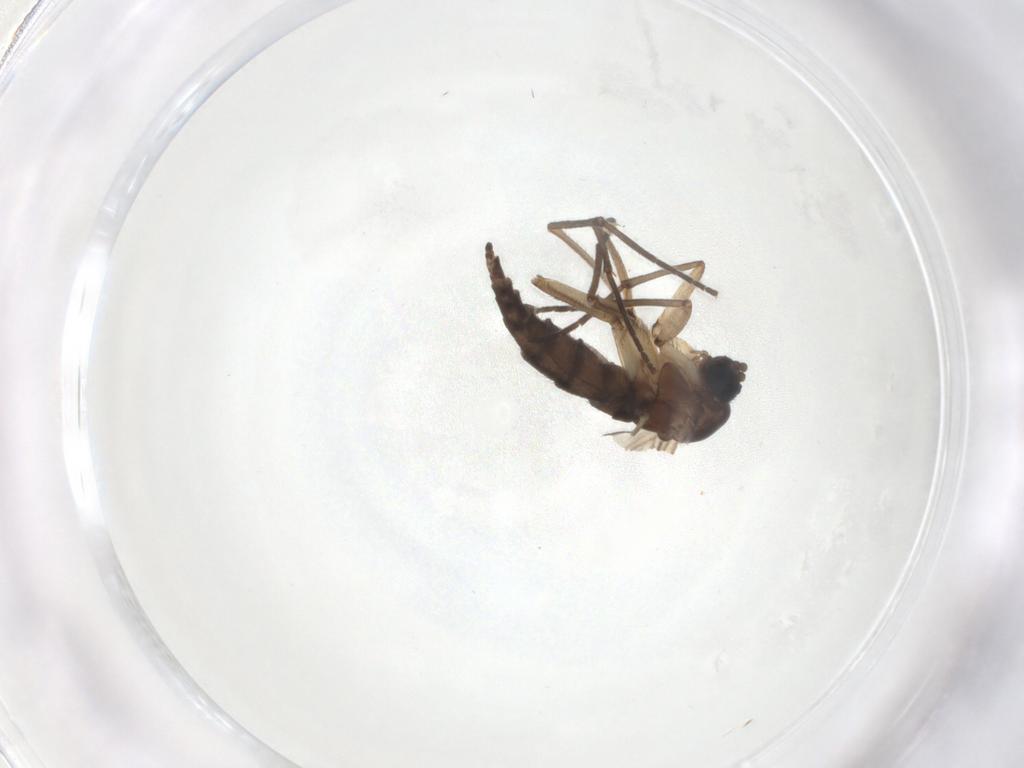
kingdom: Animalia
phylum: Arthropoda
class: Insecta
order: Diptera
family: Sciaridae
